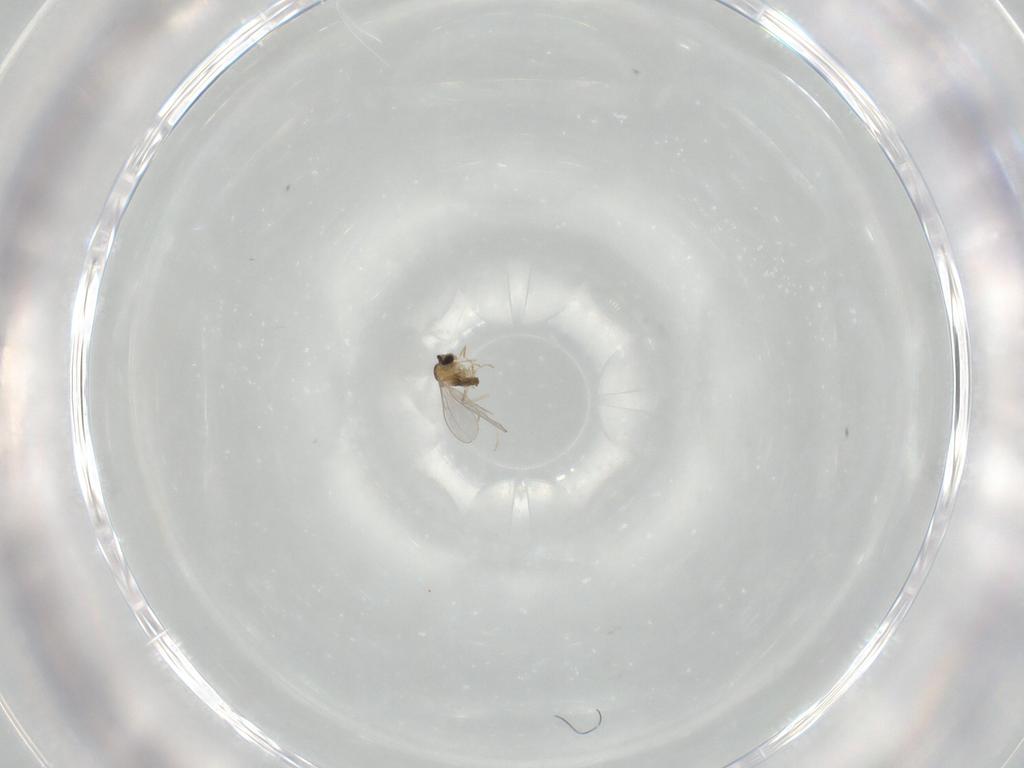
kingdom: Animalia
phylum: Arthropoda
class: Insecta
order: Diptera
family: Cecidomyiidae
